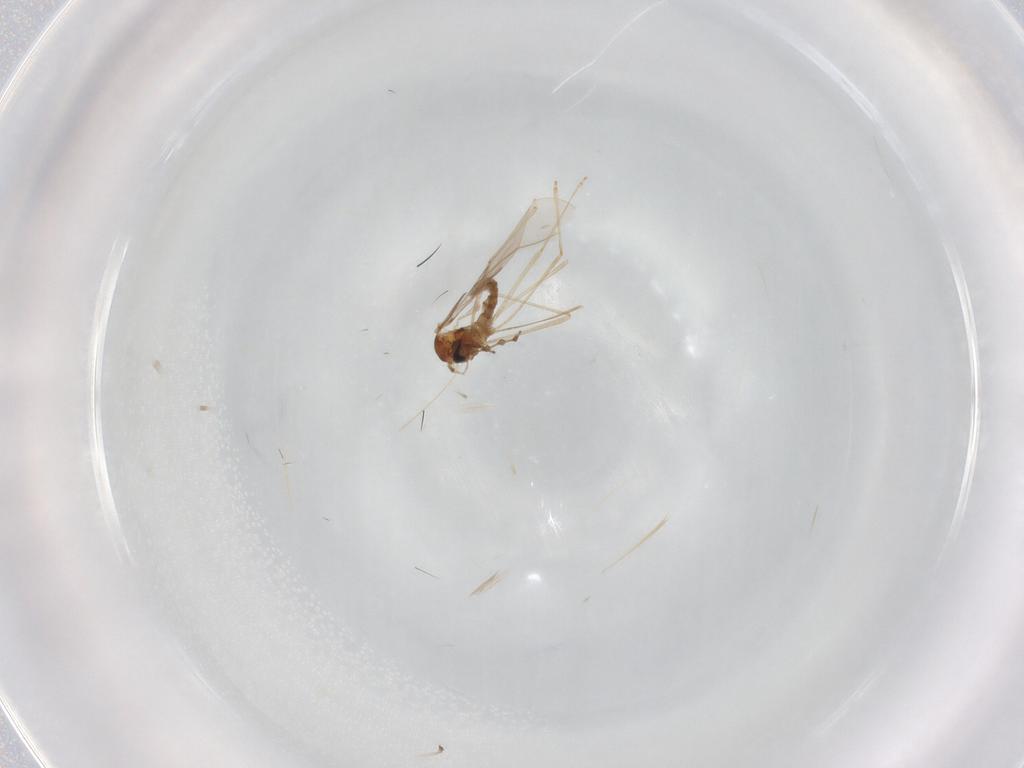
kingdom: Animalia
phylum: Arthropoda
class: Insecta
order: Diptera
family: Cecidomyiidae
